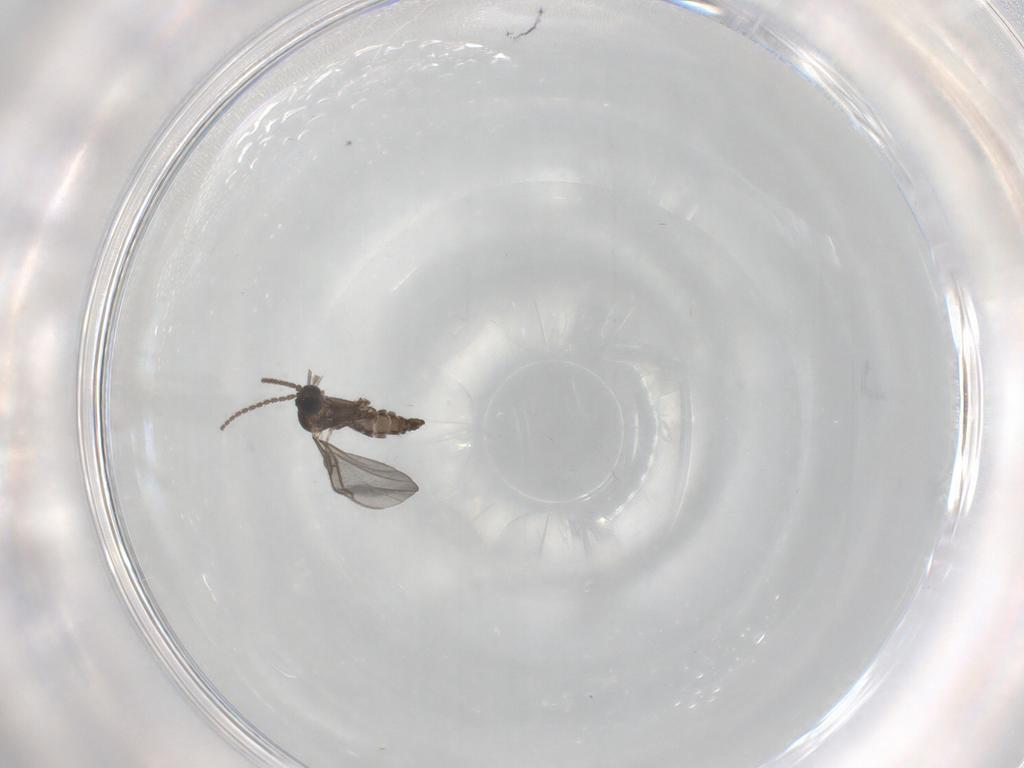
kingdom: Animalia
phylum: Arthropoda
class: Insecta
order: Diptera
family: Sciaridae
